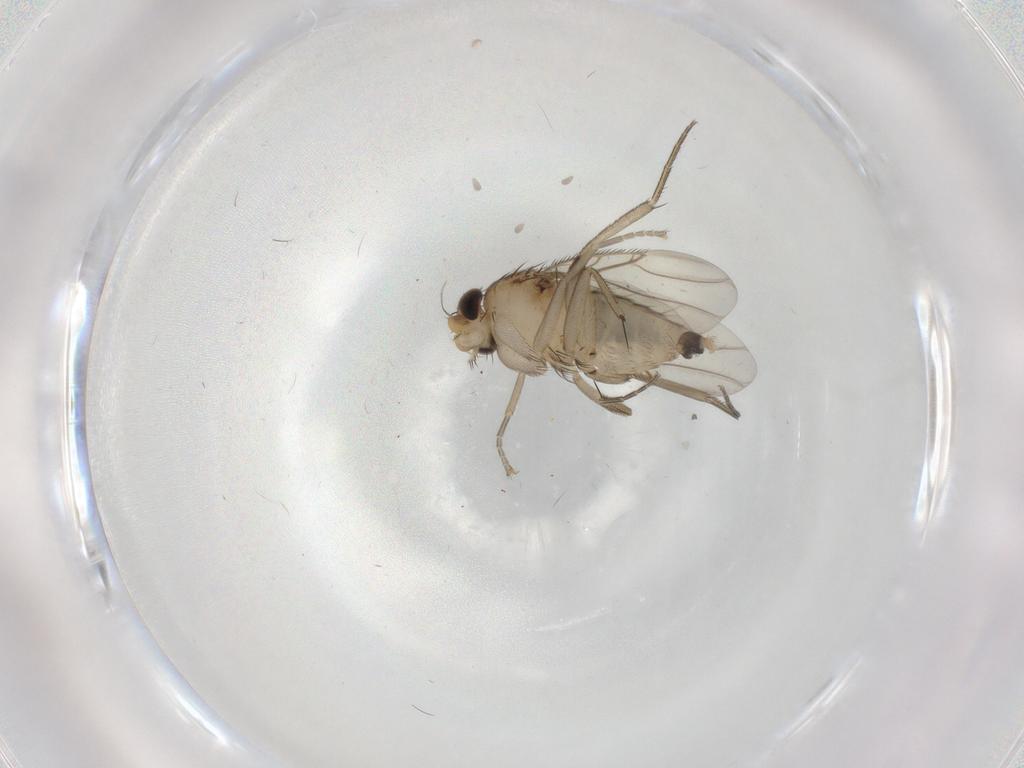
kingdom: Animalia
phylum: Arthropoda
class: Insecta
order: Diptera
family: Phoridae
